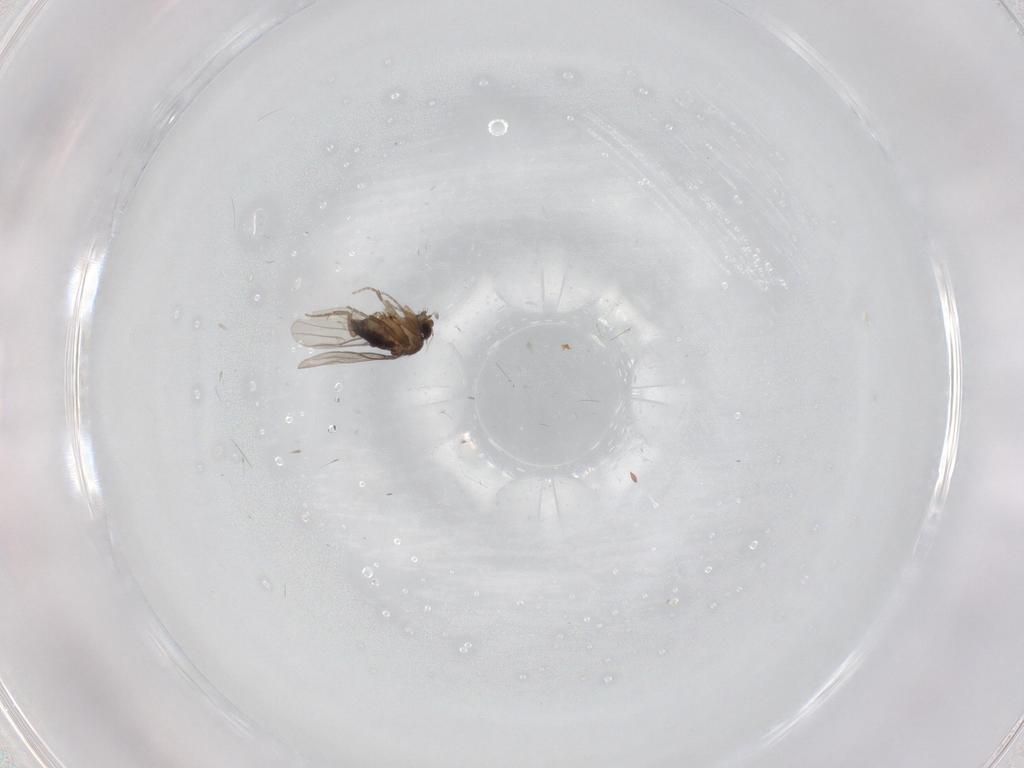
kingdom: Animalia
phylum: Arthropoda
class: Insecta
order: Diptera
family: Phoridae
